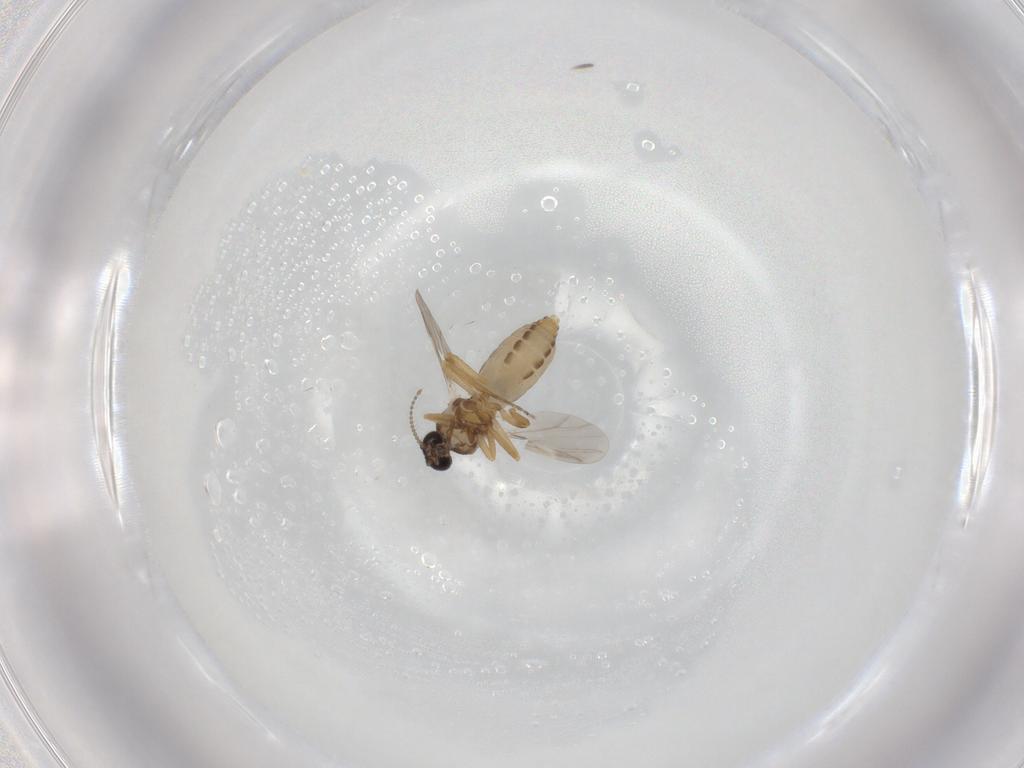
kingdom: Animalia
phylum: Arthropoda
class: Insecta
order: Diptera
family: Ceratopogonidae
